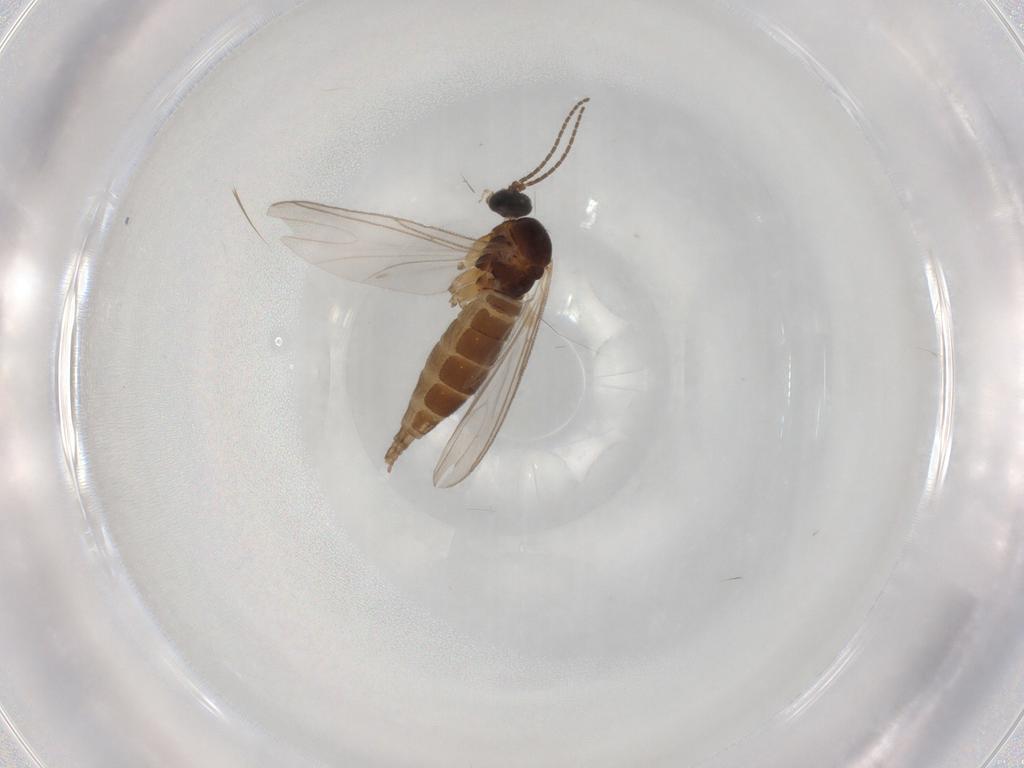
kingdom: Animalia
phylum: Arthropoda
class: Insecta
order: Diptera
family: Sciaridae
